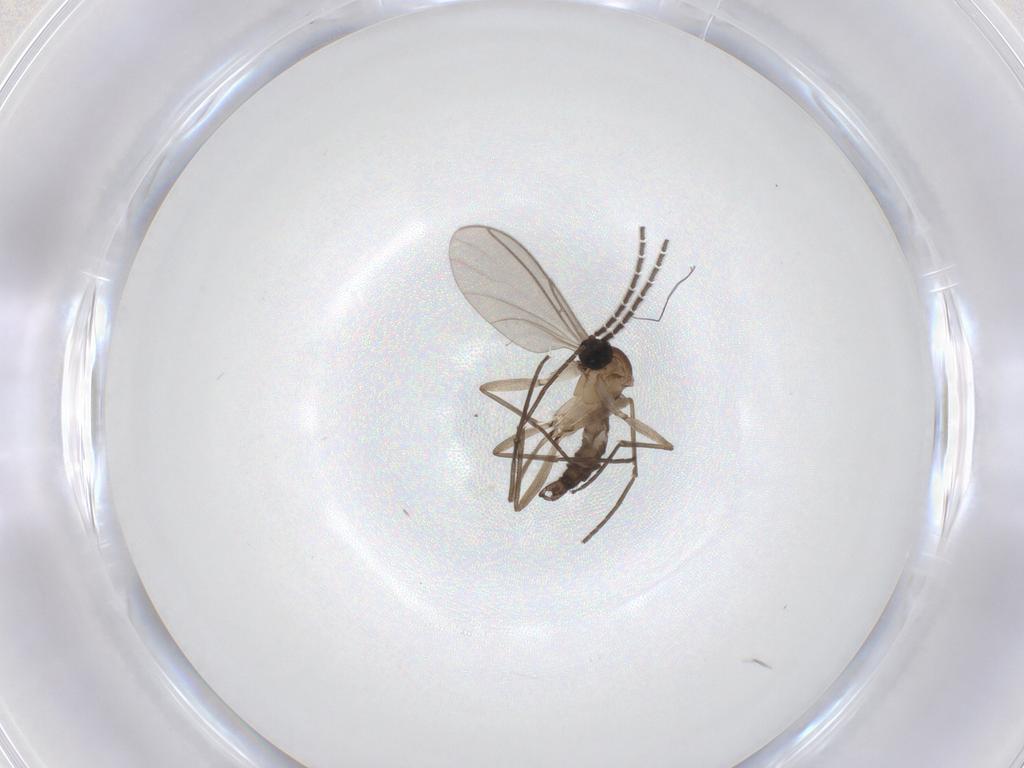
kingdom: Animalia
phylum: Arthropoda
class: Insecta
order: Diptera
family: Sciaridae
